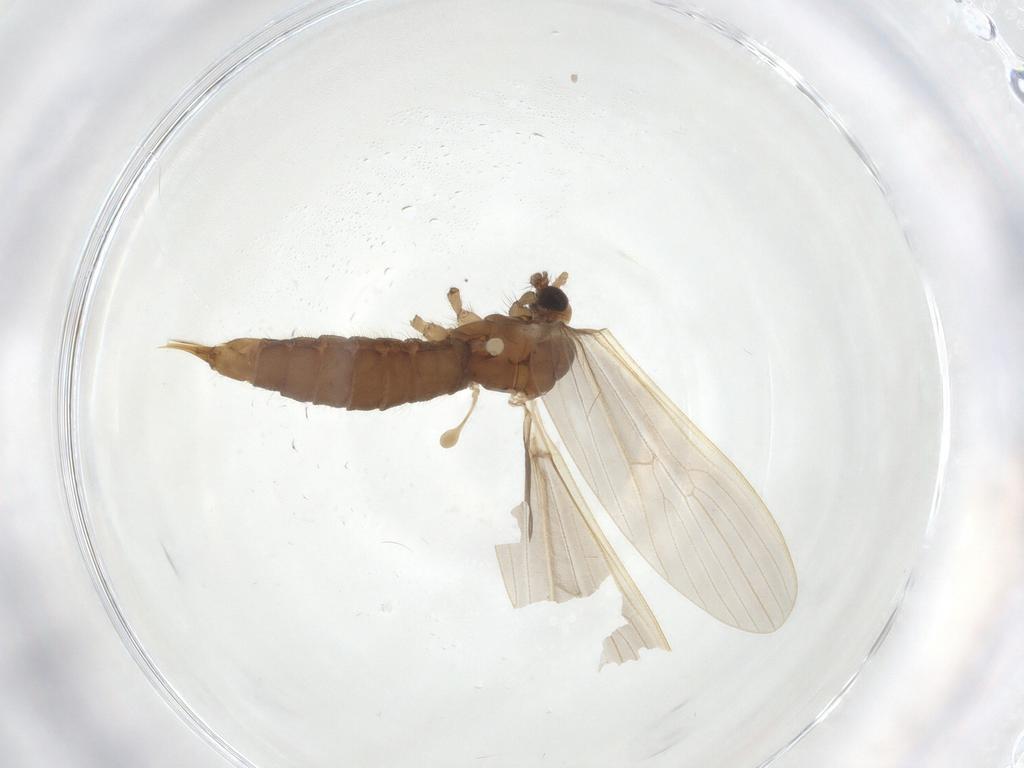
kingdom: Animalia
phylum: Arthropoda
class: Insecta
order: Diptera
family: Limoniidae
